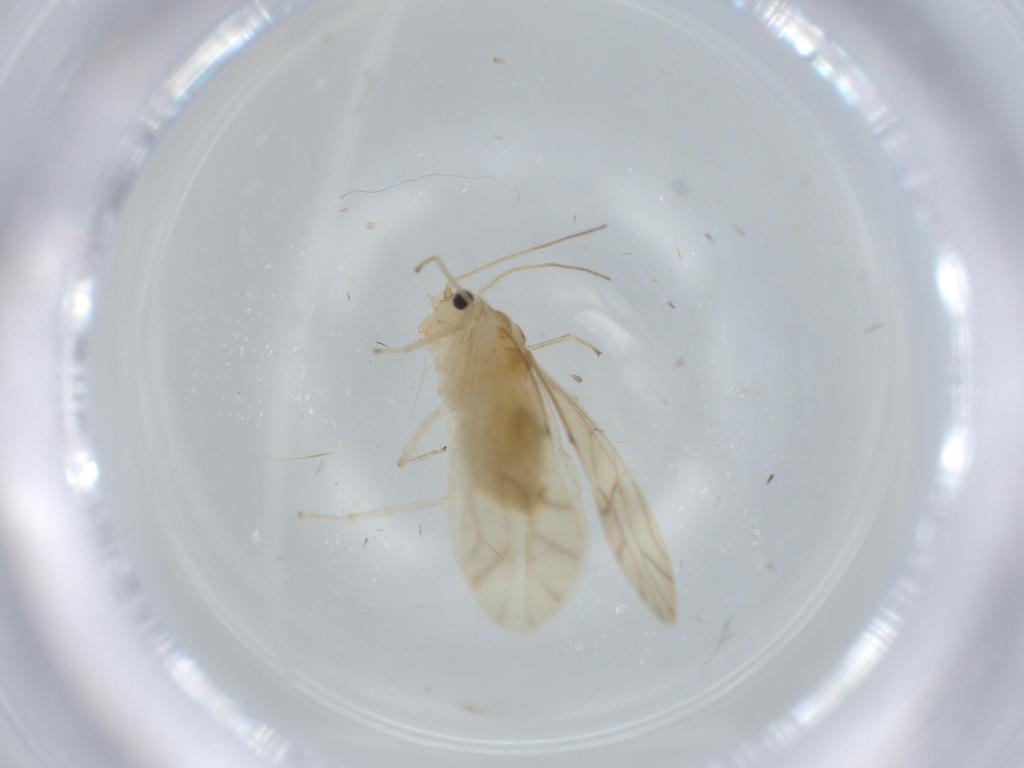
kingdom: Animalia
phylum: Arthropoda
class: Insecta
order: Psocodea
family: Caeciliusidae
